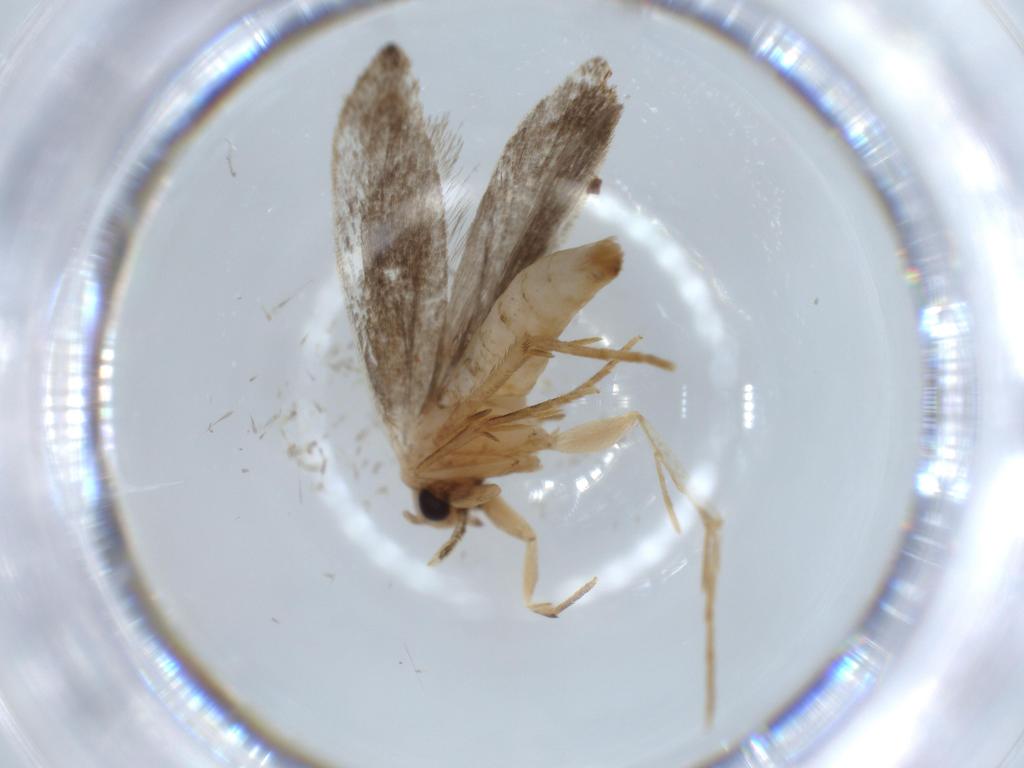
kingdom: Animalia
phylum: Arthropoda
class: Insecta
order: Lepidoptera
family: Tineidae
